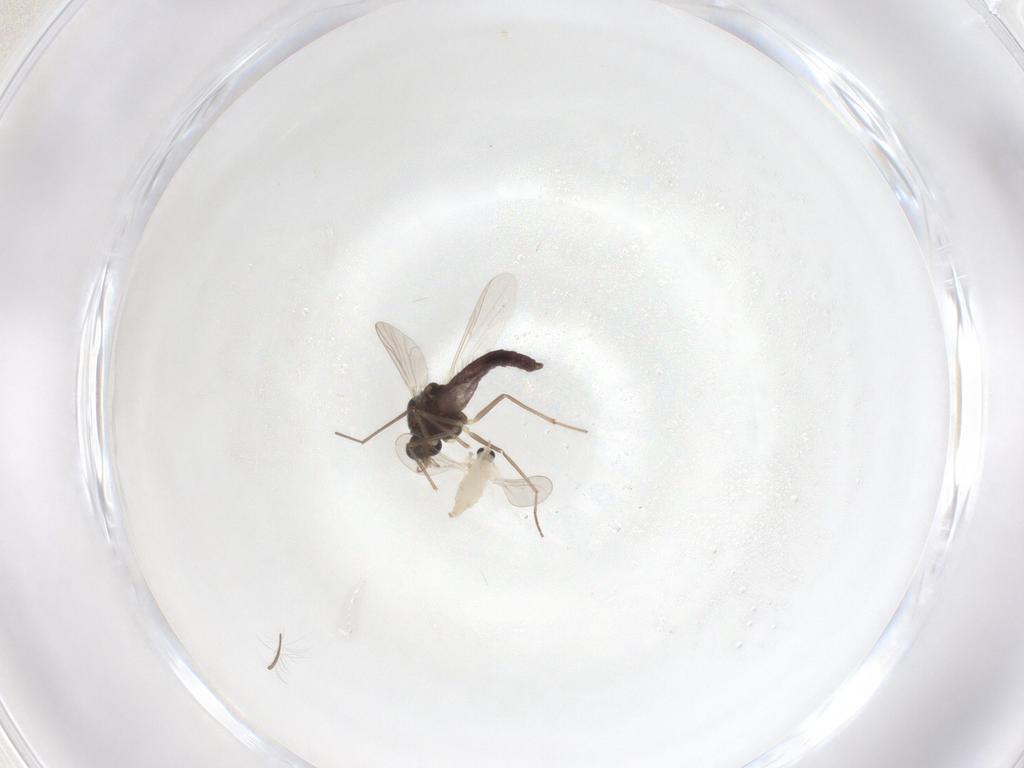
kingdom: Animalia
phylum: Arthropoda
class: Insecta
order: Diptera
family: Chironomidae
